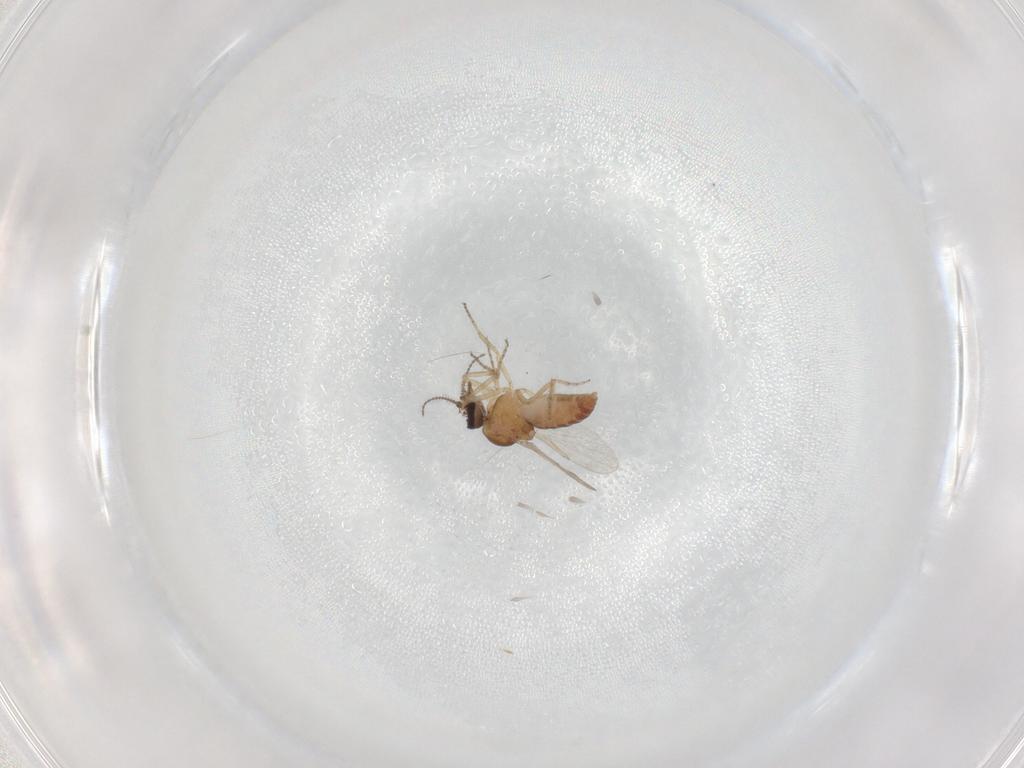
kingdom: Animalia
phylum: Arthropoda
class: Insecta
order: Diptera
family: Ceratopogonidae
